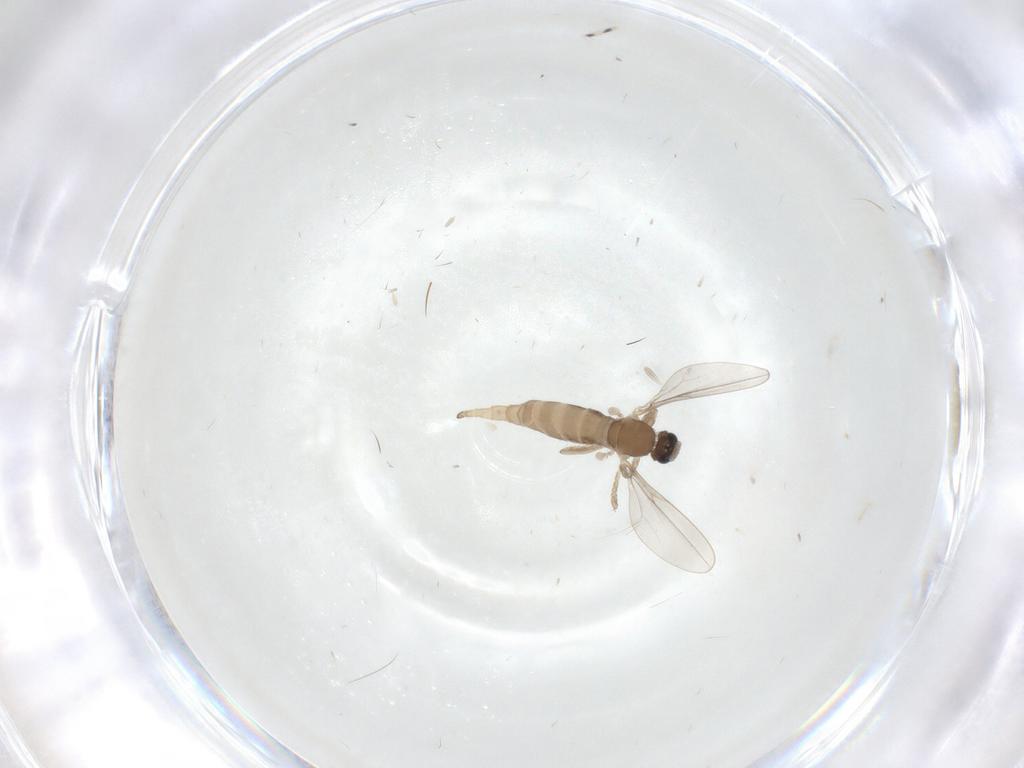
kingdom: Animalia
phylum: Arthropoda
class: Insecta
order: Diptera
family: Cecidomyiidae
